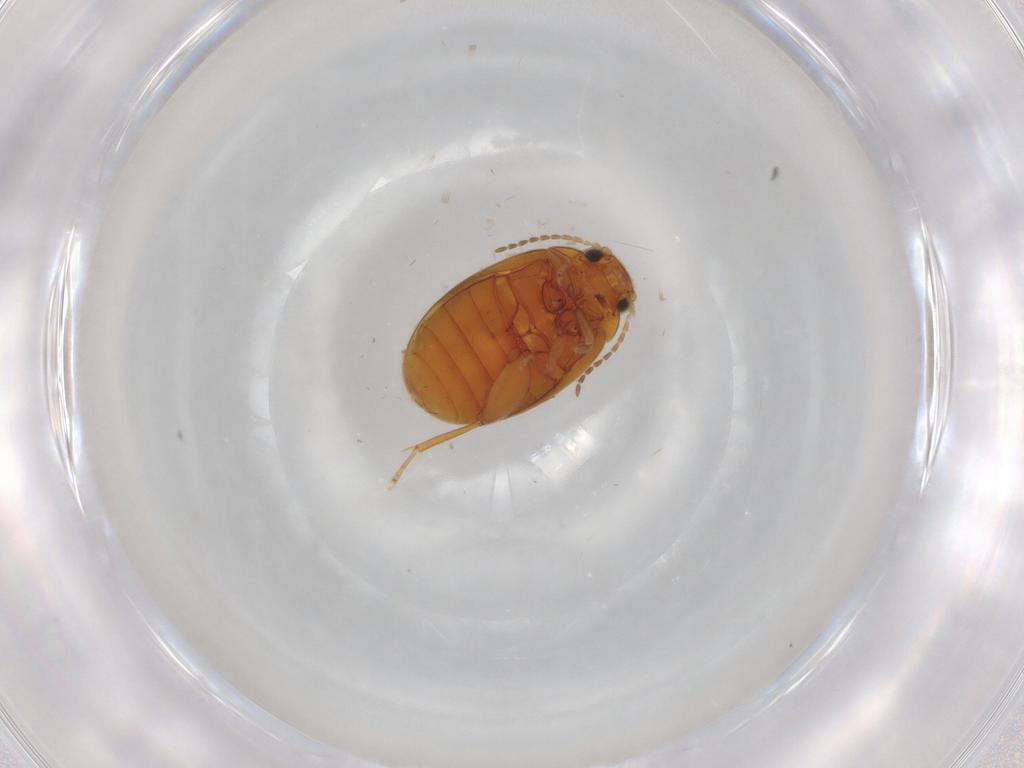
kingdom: Animalia
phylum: Arthropoda
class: Insecta
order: Coleoptera
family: Scirtidae
